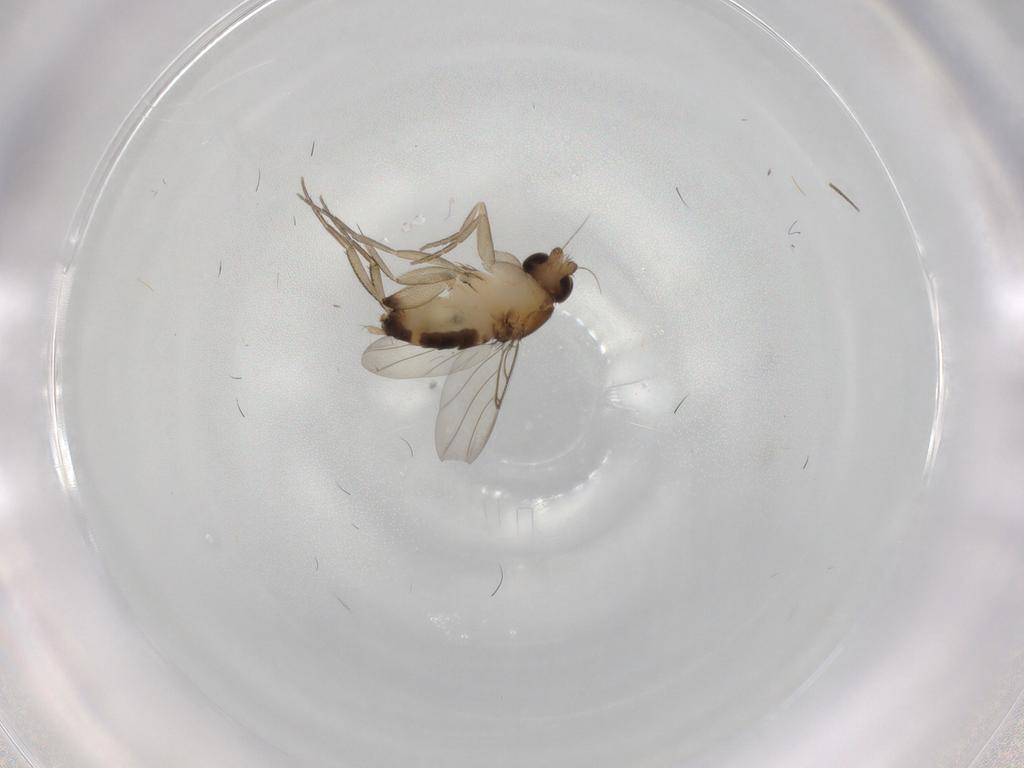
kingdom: Animalia
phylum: Arthropoda
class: Insecta
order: Diptera
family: Phoridae
